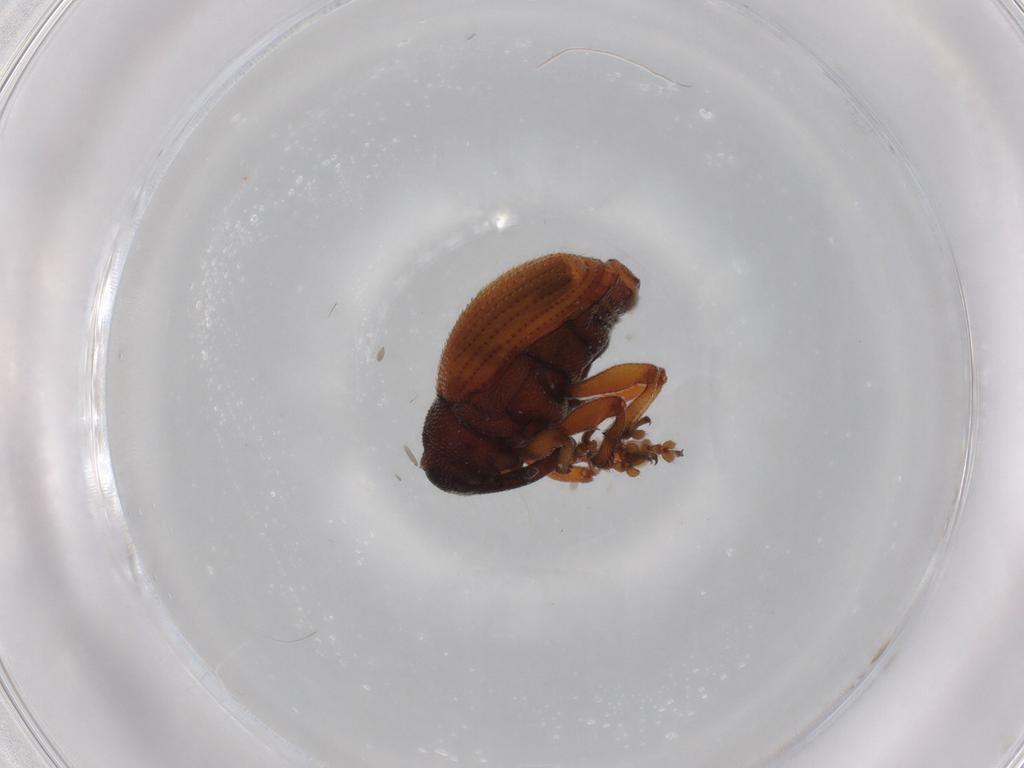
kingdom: Animalia
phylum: Arthropoda
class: Insecta
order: Coleoptera
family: Curculionidae
